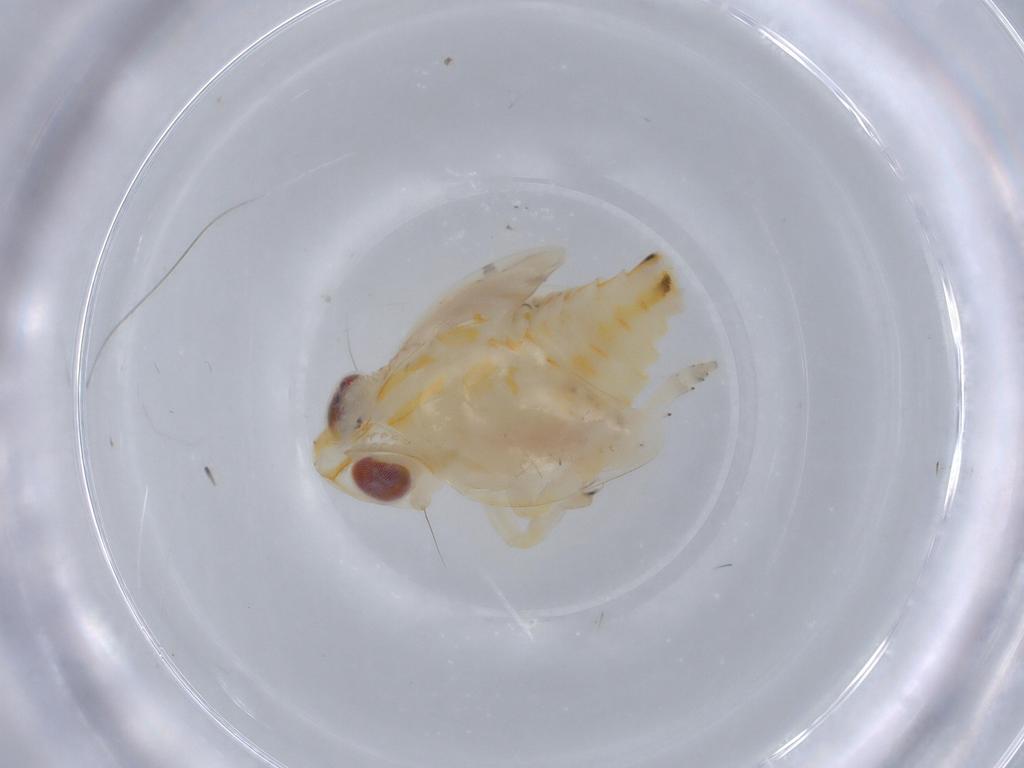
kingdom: Animalia
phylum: Arthropoda
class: Insecta
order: Hemiptera
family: Nogodinidae
